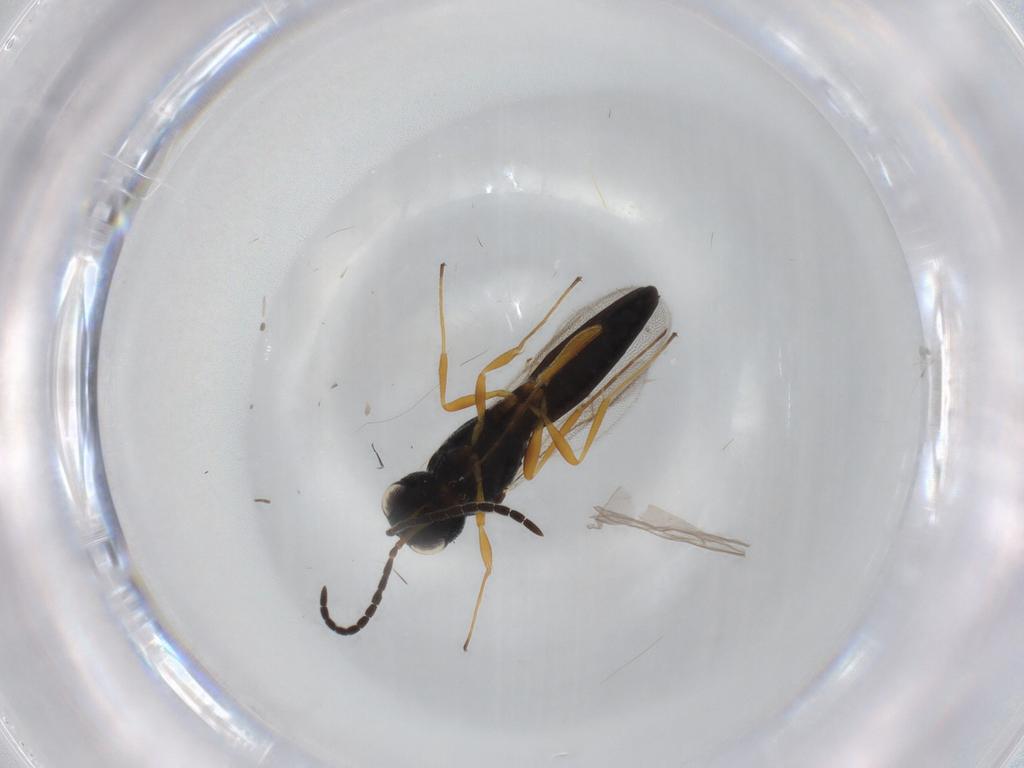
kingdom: Animalia
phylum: Arthropoda
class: Insecta
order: Hymenoptera
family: Scelionidae
